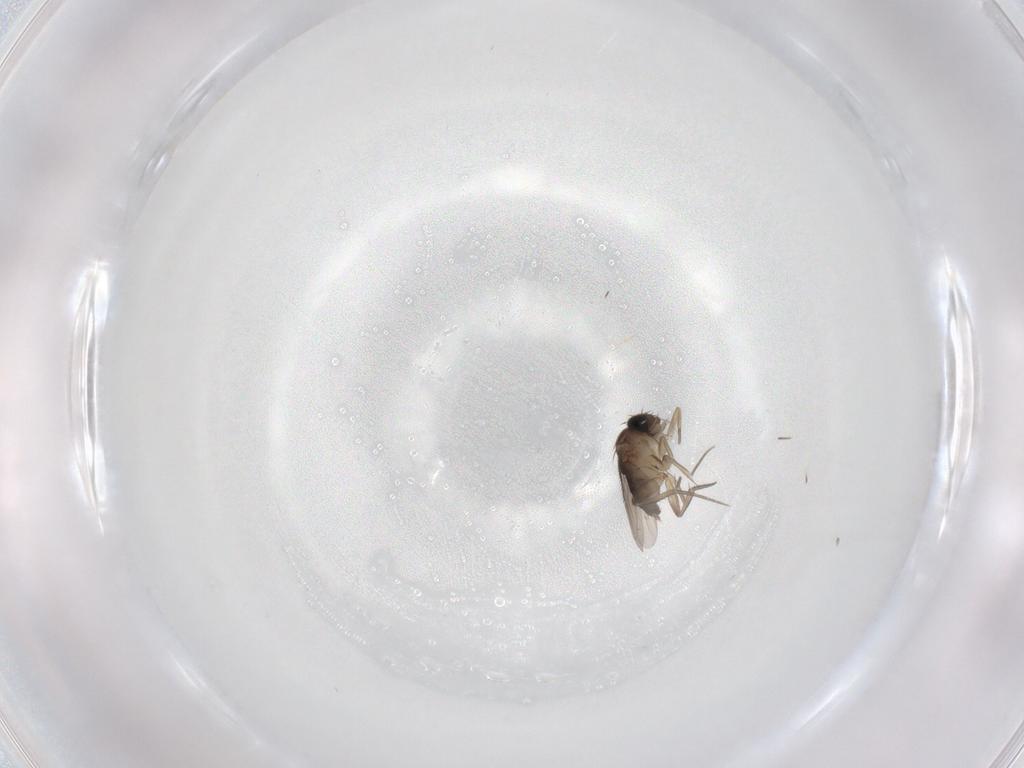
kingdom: Animalia
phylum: Arthropoda
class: Insecta
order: Diptera
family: Phoridae
